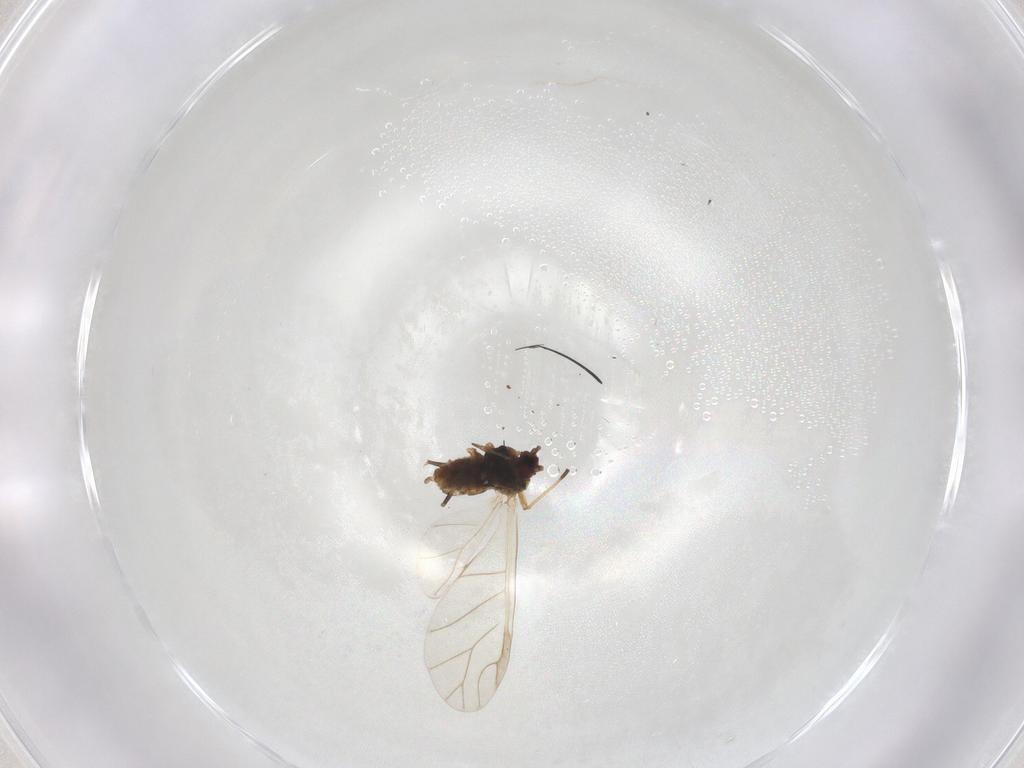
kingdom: Animalia
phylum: Arthropoda
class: Insecta
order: Hemiptera
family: Aphididae
